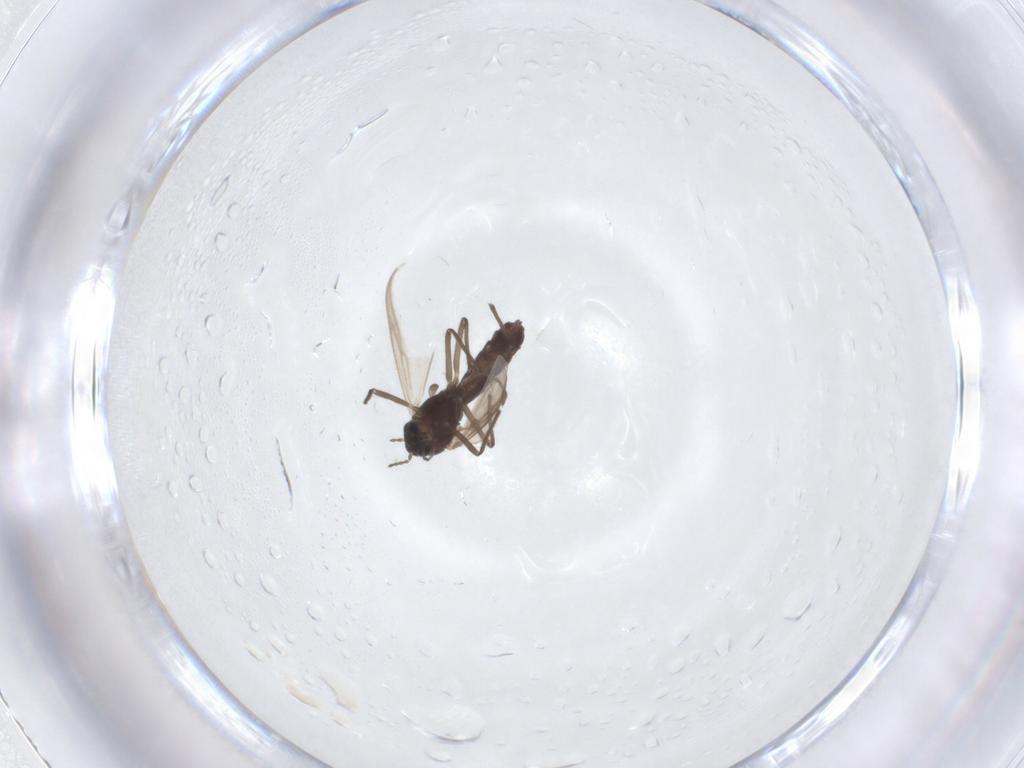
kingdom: Animalia
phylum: Arthropoda
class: Insecta
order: Diptera
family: Chironomidae
